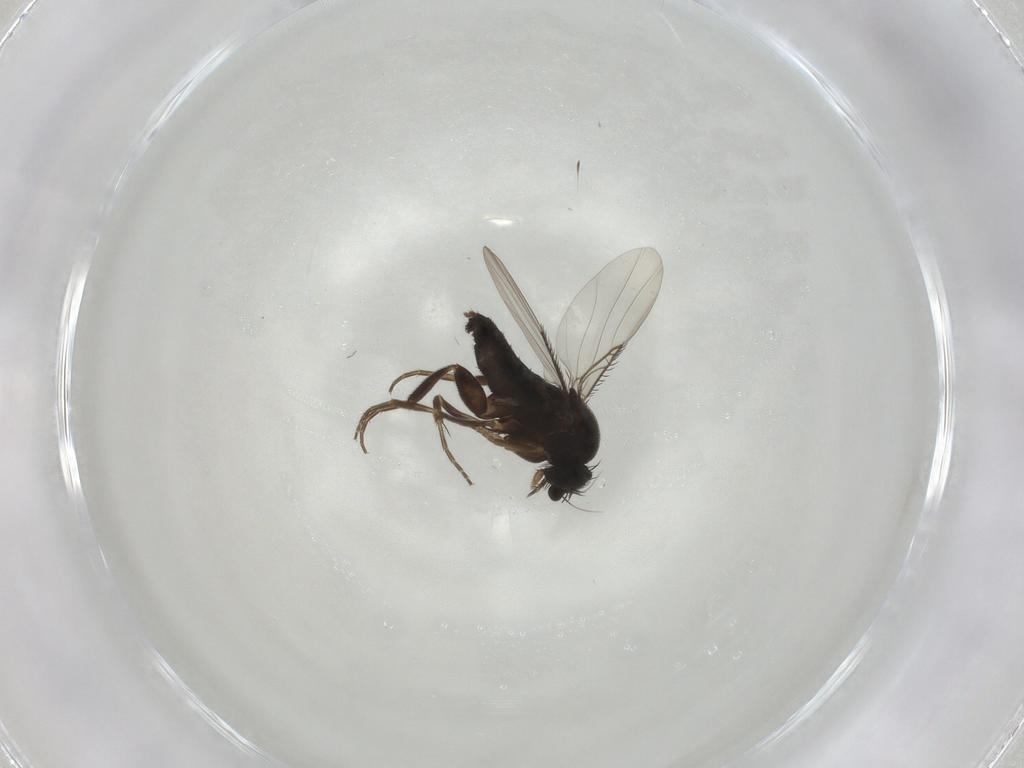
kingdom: Animalia
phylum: Arthropoda
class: Insecta
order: Diptera
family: Phoridae
